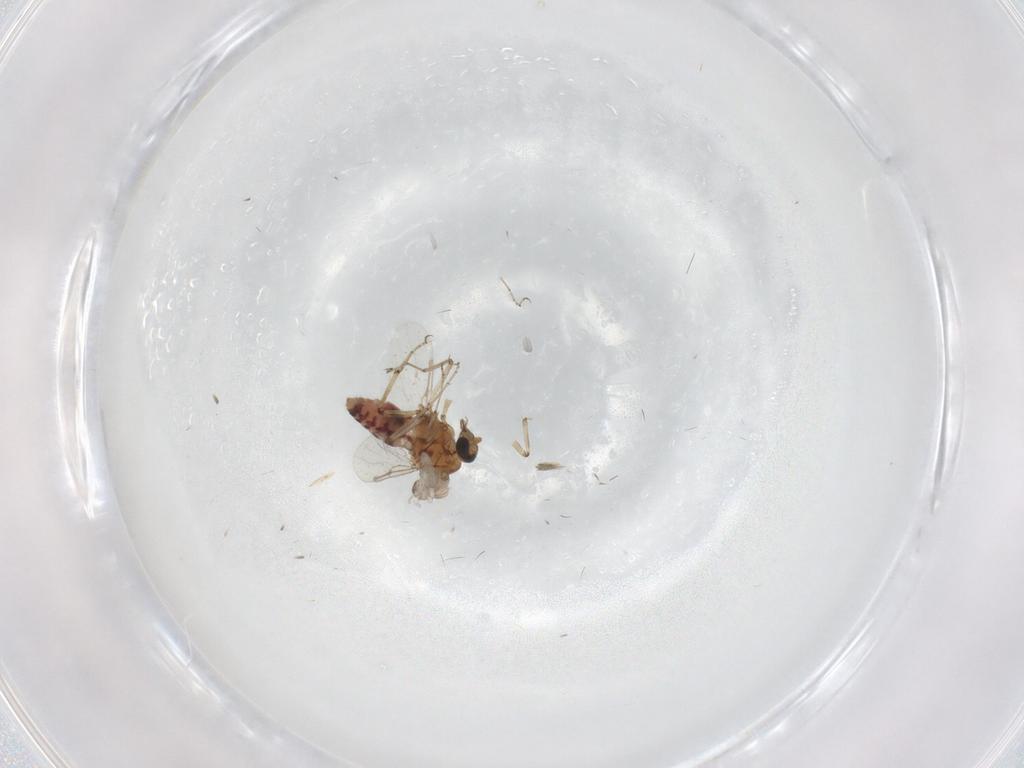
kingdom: Animalia
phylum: Arthropoda
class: Insecta
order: Diptera
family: Ceratopogonidae
